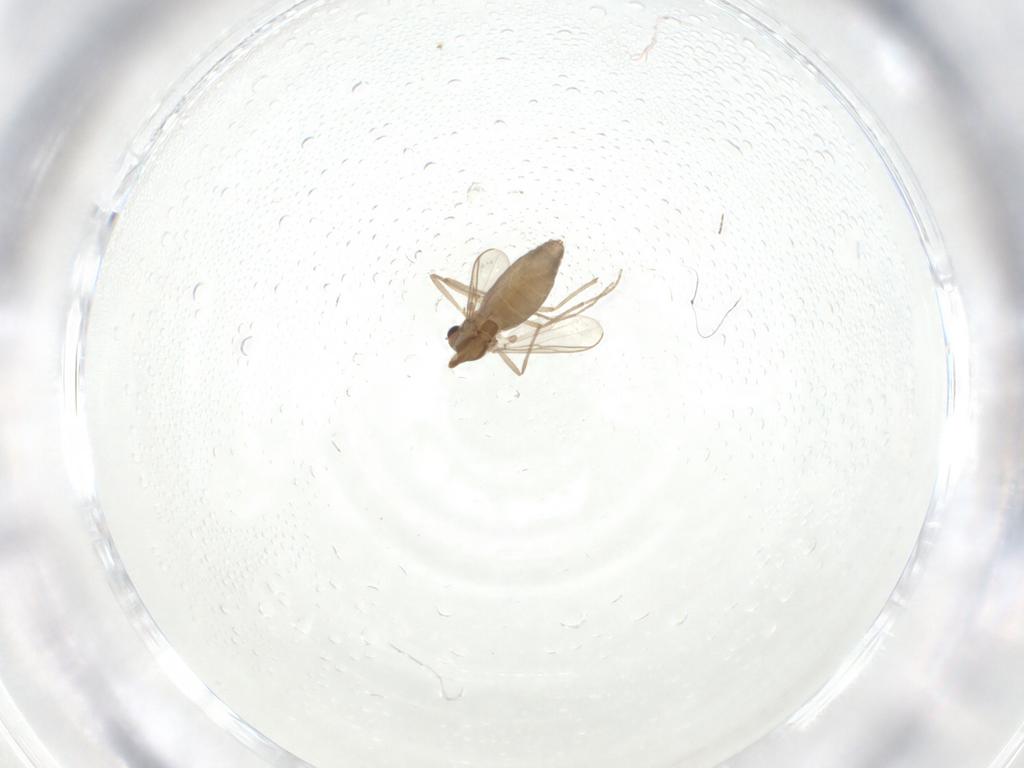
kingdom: Animalia
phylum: Arthropoda
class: Insecta
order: Diptera
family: Chironomidae
